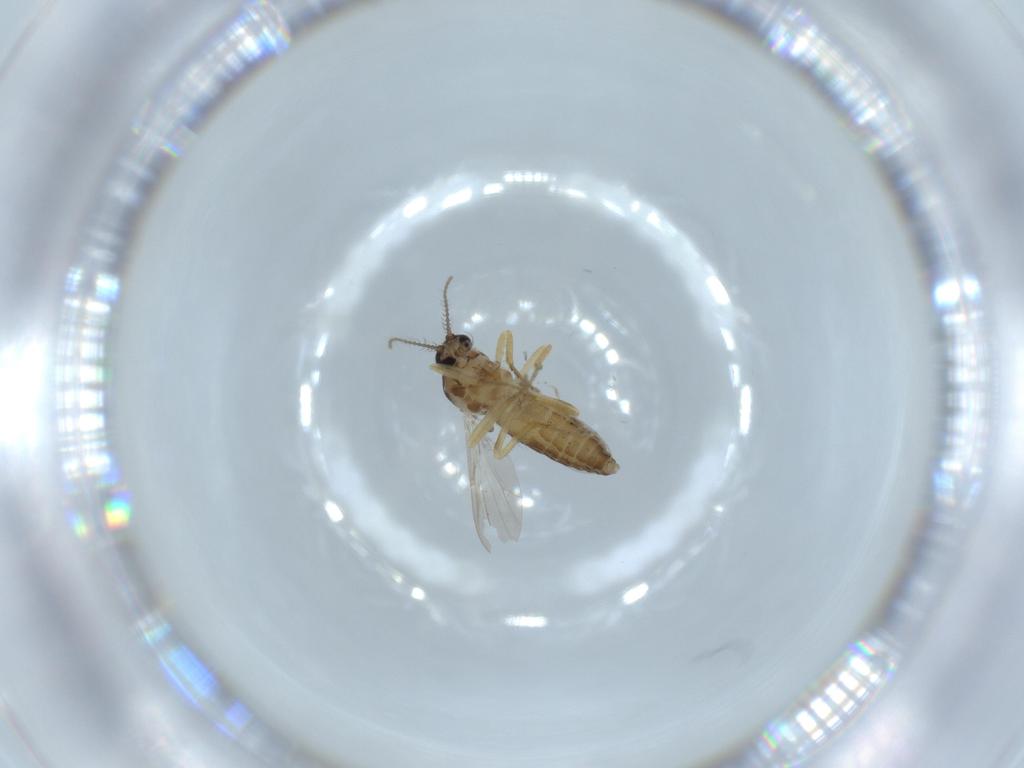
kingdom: Animalia
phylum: Arthropoda
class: Insecta
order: Diptera
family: Ceratopogonidae
